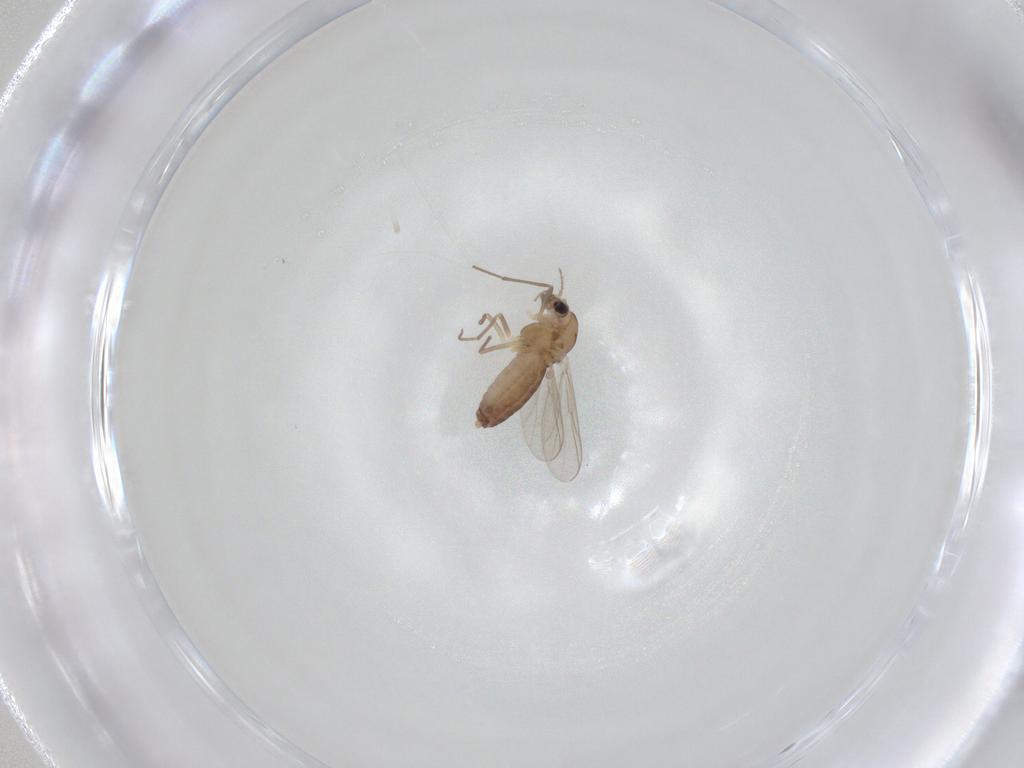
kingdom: Animalia
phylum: Arthropoda
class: Insecta
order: Diptera
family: Chironomidae
